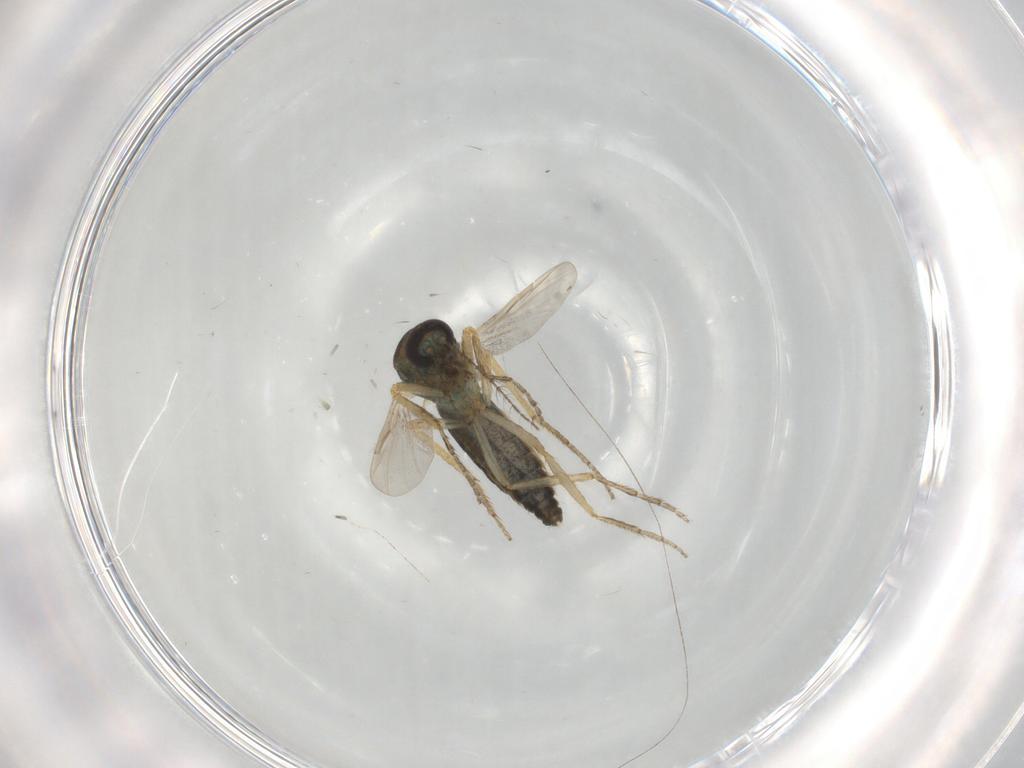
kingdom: Animalia
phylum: Arthropoda
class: Insecta
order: Diptera
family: Ceratopogonidae
